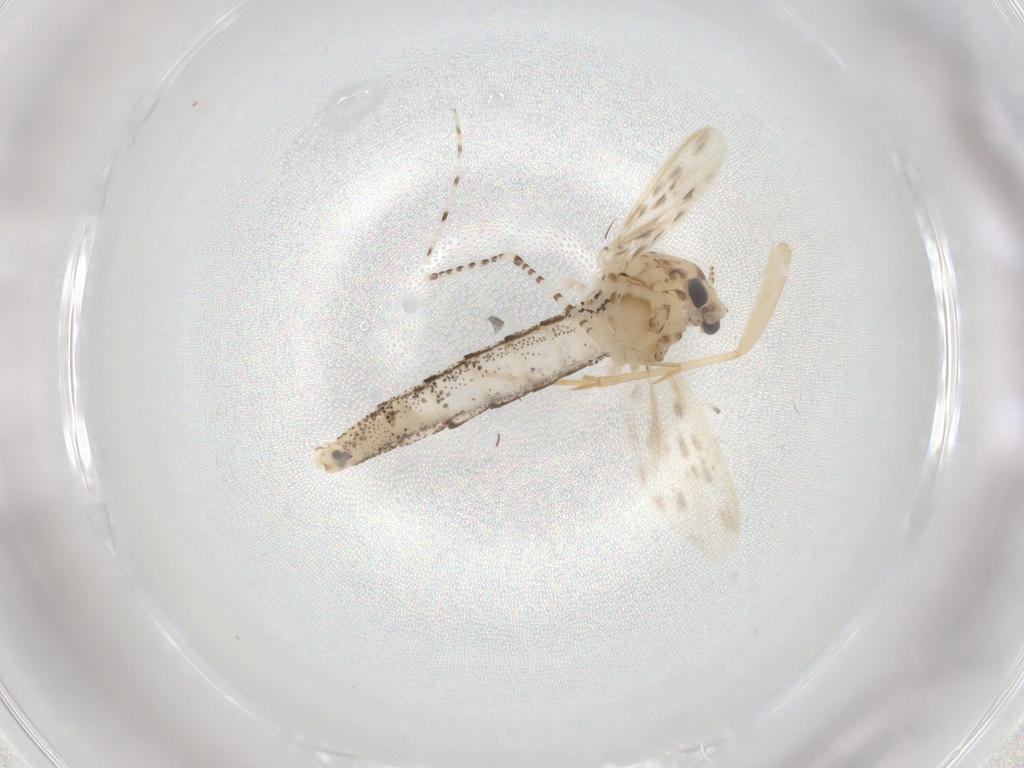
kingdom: Animalia
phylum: Arthropoda
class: Insecta
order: Diptera
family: Chaoboridae
